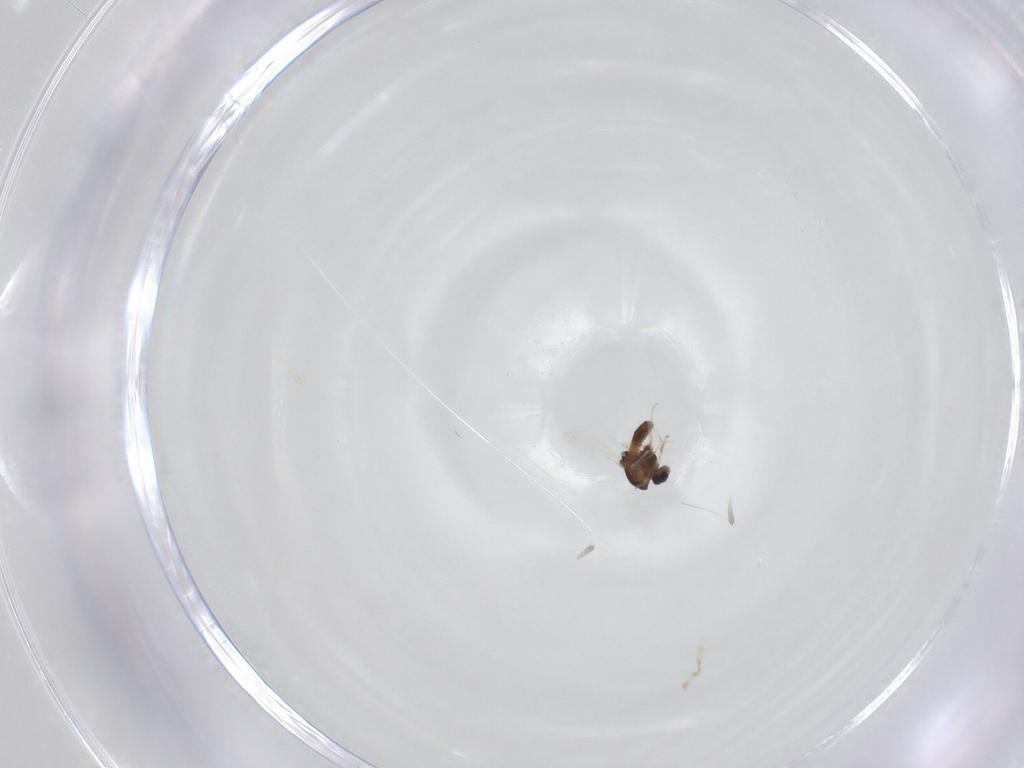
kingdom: Animalia
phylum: Arthropoda
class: Insecta
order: Diptera
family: Chironomidae
